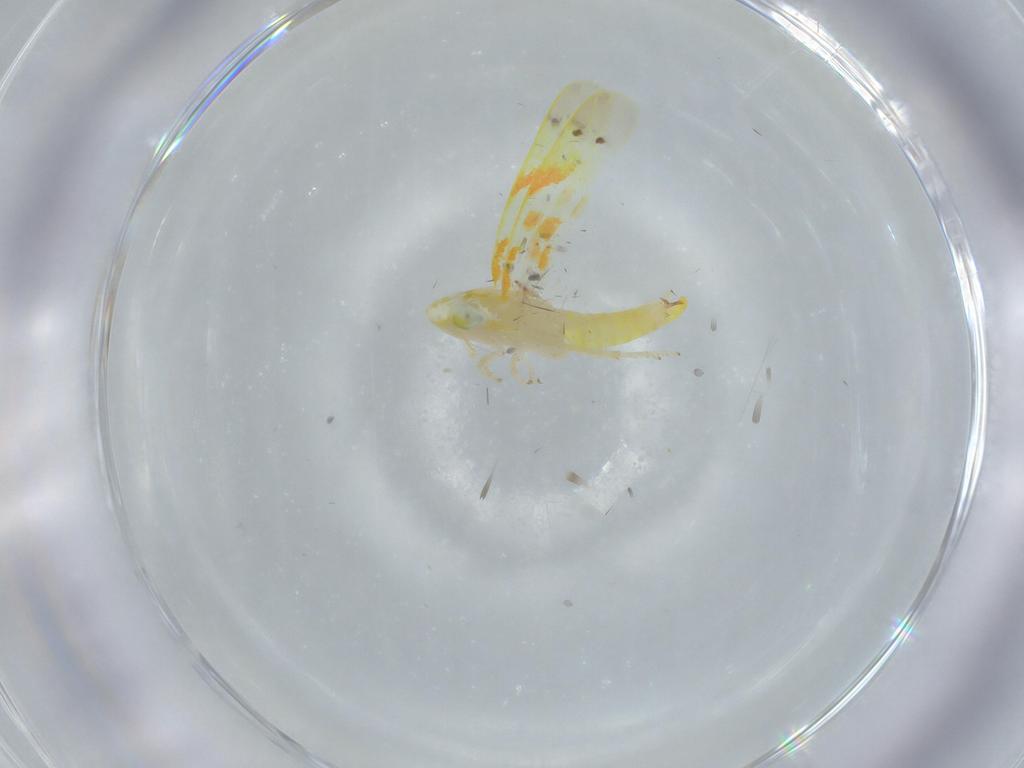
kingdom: Animalia
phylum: Arthropoda
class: Insecta
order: Hemiptera
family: Cicadellidae
